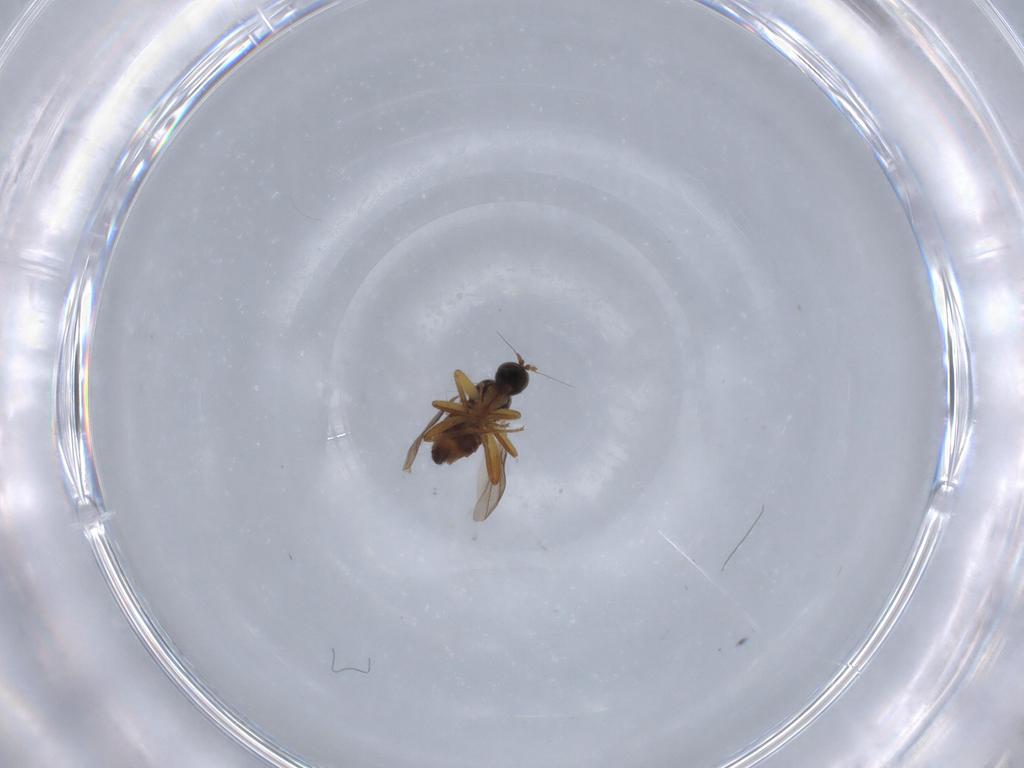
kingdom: Animalia
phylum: Arthropoda
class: Insecta
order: Diptera
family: Hybotidae
